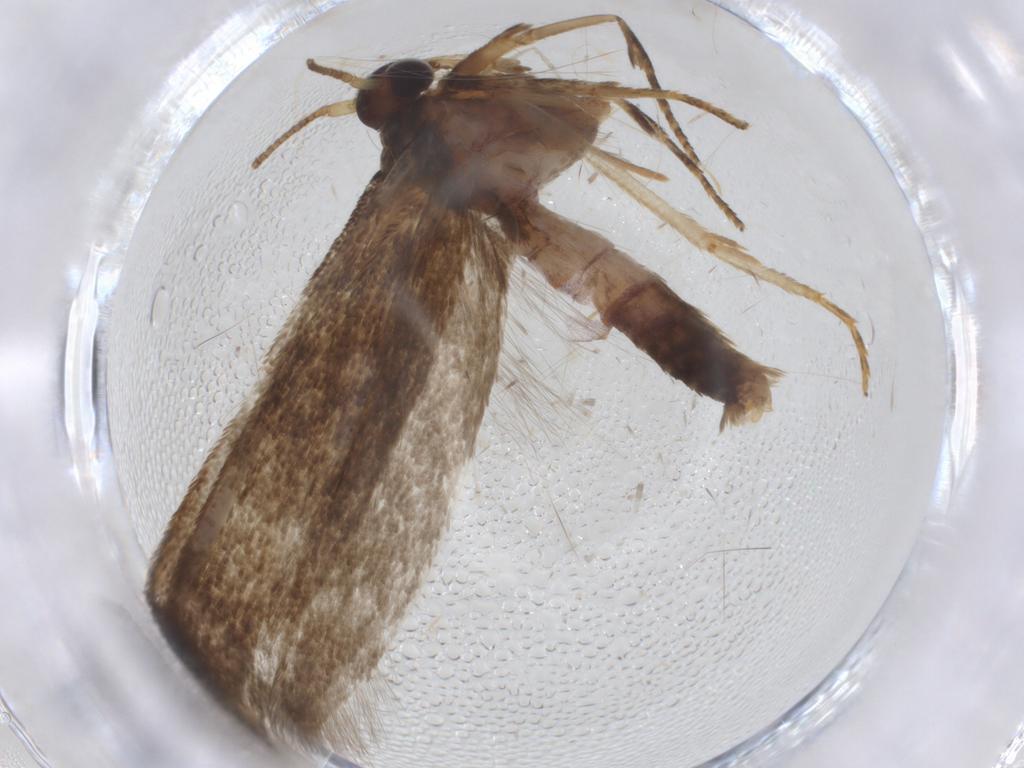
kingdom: Animalia
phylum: Arthropoda
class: Insecta
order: Lepidoptera
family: Blastobasidae
